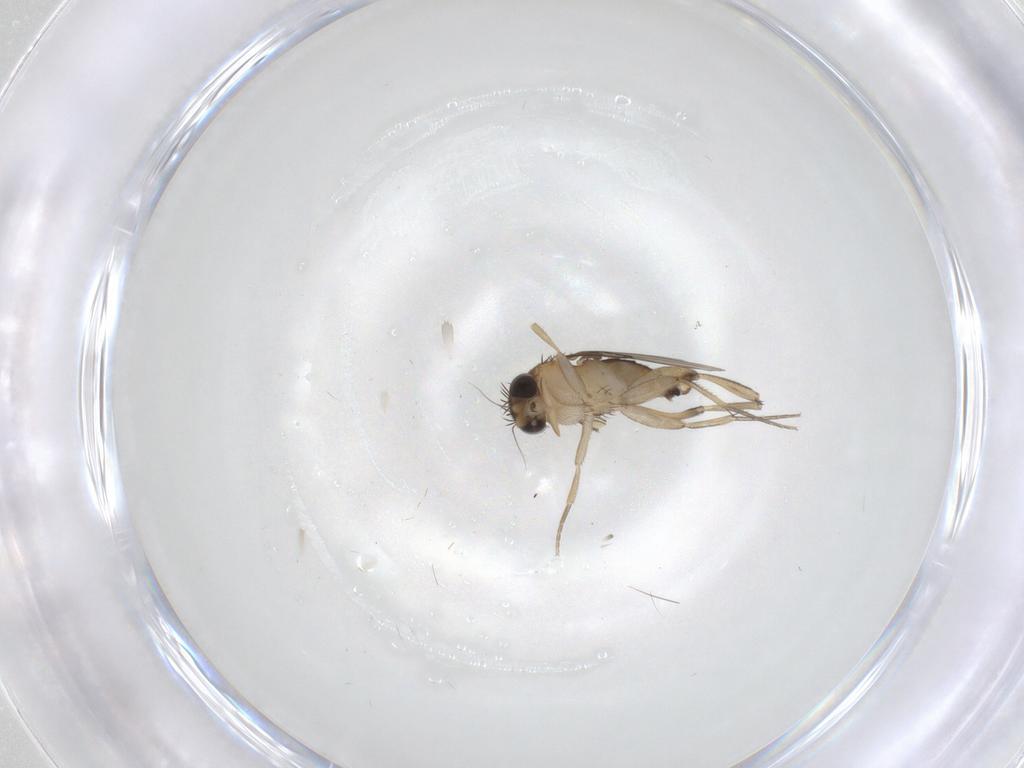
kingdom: Animalia
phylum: Arthropoda
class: Insecta
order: Diptera
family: Phoridae
